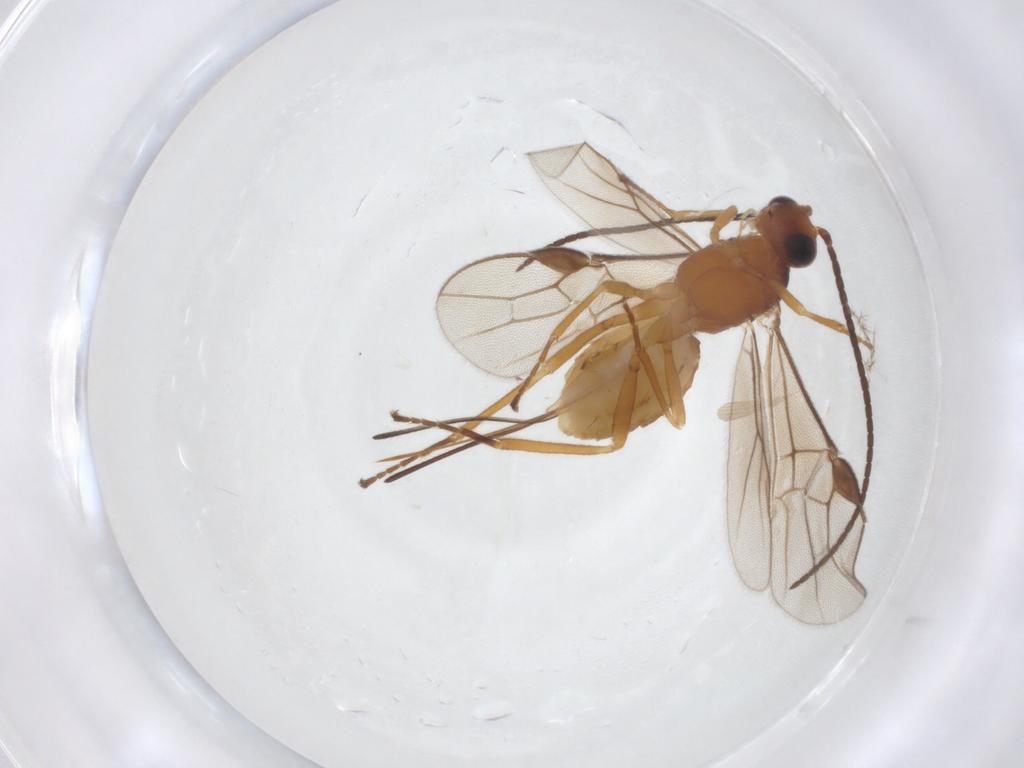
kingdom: Animalia
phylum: Arthropoda
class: Insecta
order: Hymenoptera
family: Braconidae
